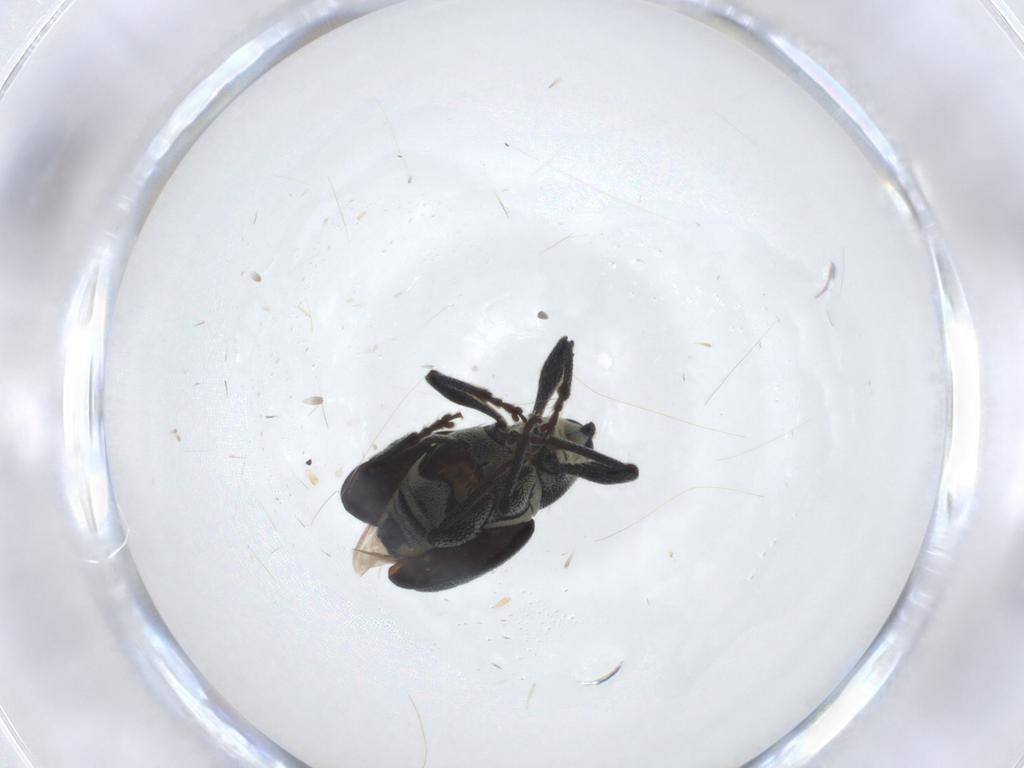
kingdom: Animalia
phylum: Arthropoda
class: Insecta
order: Coleoptera
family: Curculionidae
